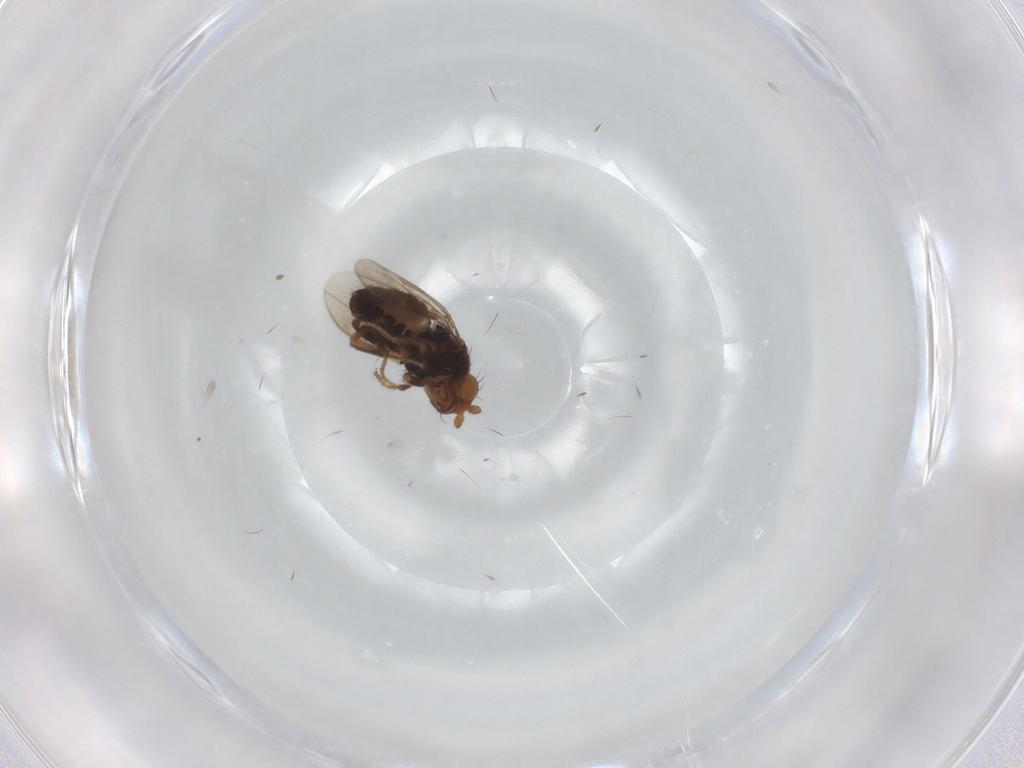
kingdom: Animalia
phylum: Arthropoda
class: Insecta
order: Diptera
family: Sphaeroceridae
